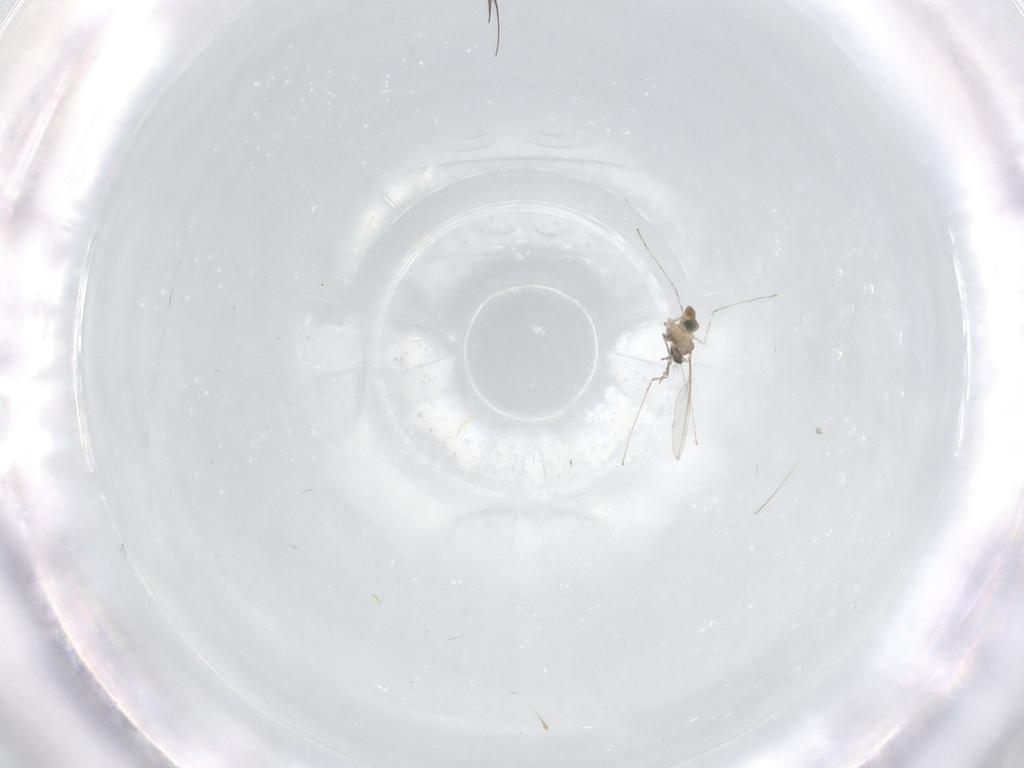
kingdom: Animalia
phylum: Arthropoda
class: Insecta
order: Diptera
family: Cecidomyiidae
